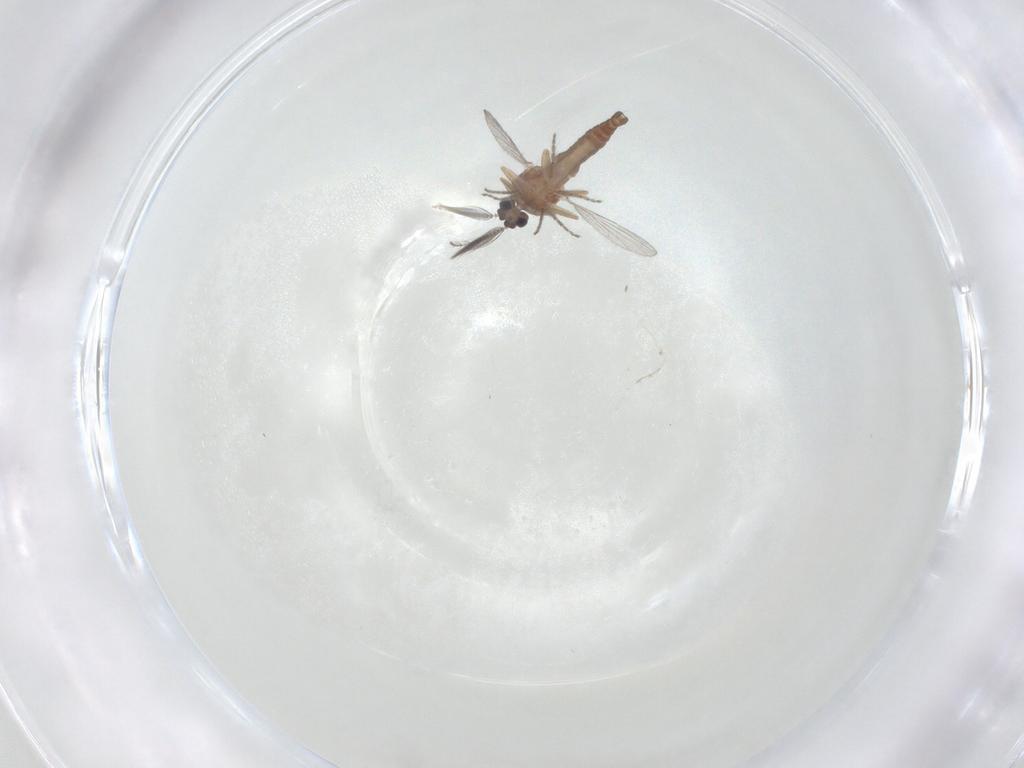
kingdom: Animalia
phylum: Arthropoda
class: Insecta
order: Diptera
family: Ceratopogonidae
